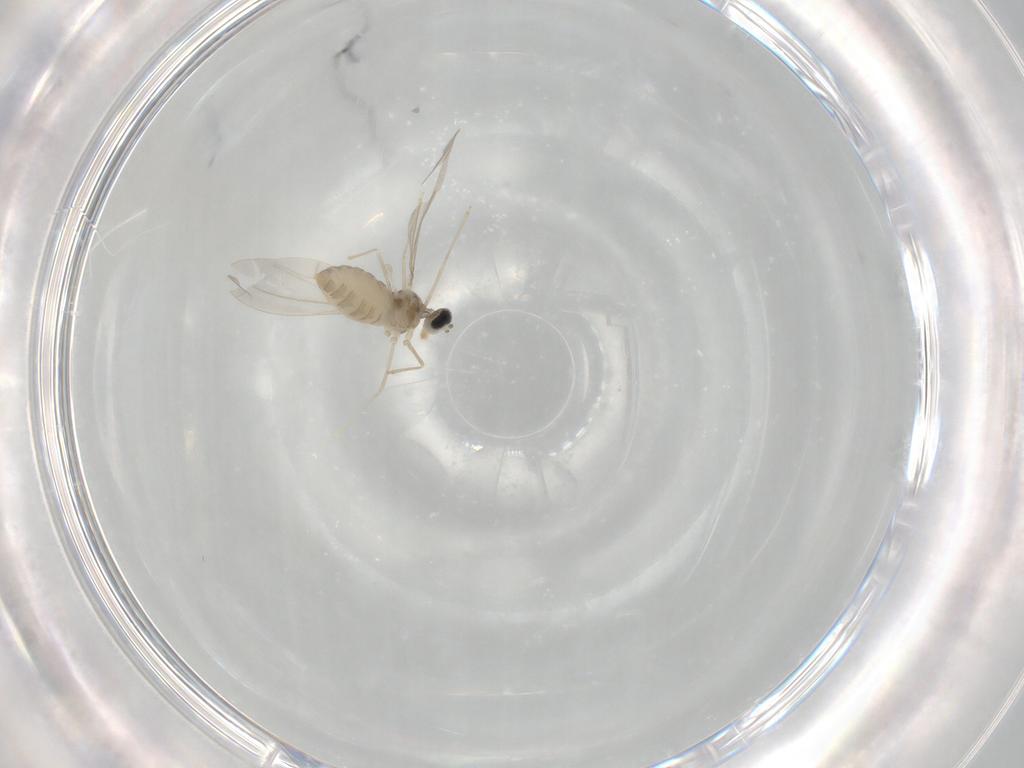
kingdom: Animalia
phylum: Arthropoda
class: Insecta
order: Diptera
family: Cecidomyiidae
